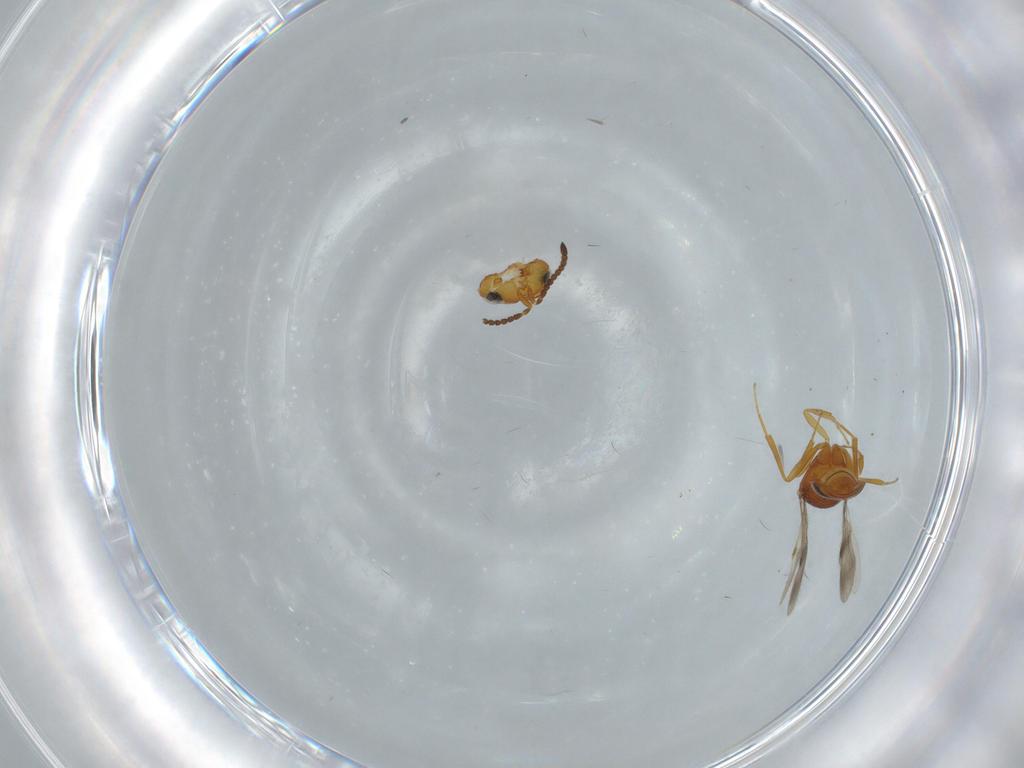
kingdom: Animalia
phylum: Arthropoda
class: Insecta
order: Hymenoptera
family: Scelionidae
